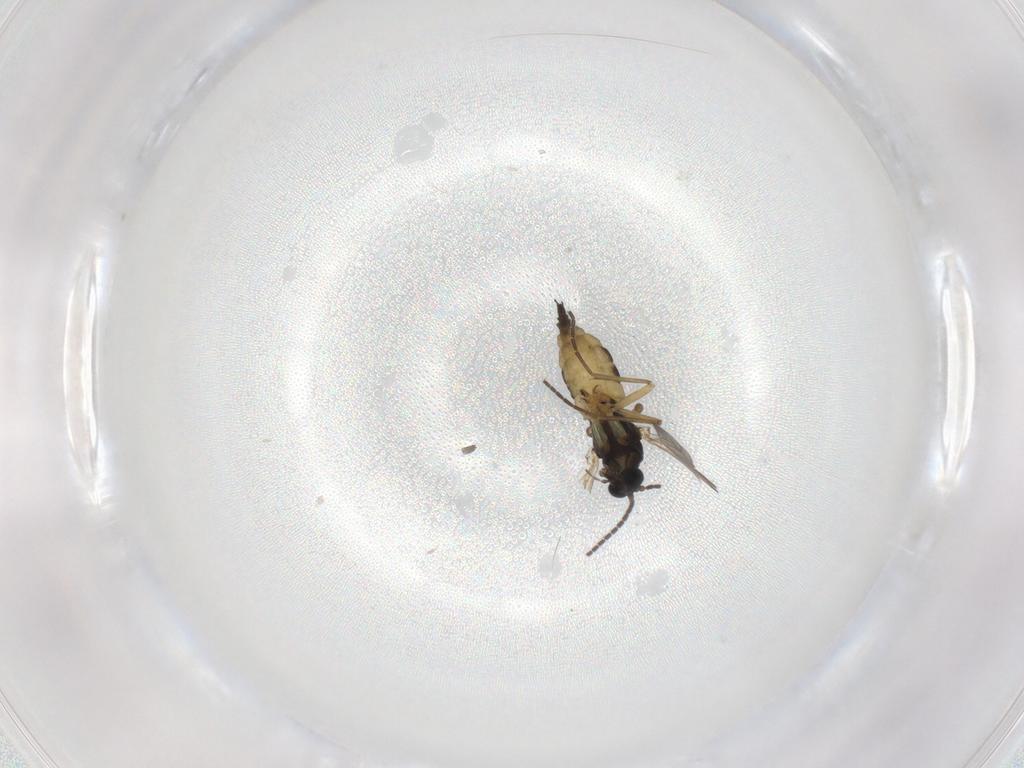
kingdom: Animalia
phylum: Arthropoda
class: Insecta
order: Diptera
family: Sciaridae
